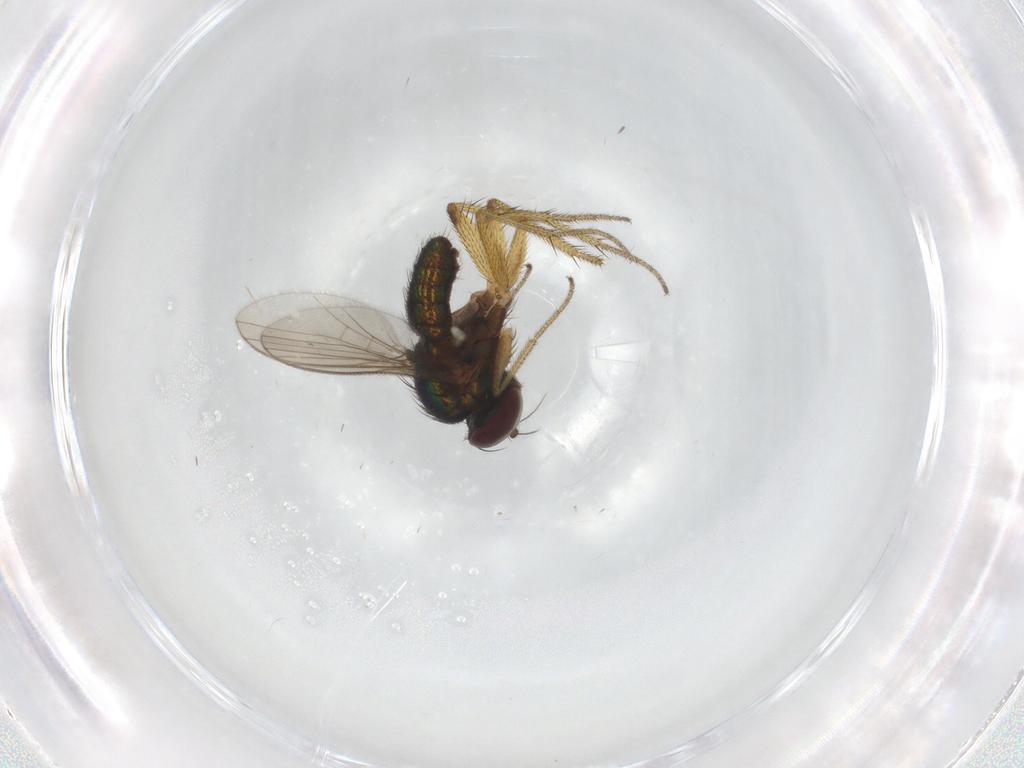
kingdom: Animalia
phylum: Arthropoda
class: Insecta
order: Diptera
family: Dolichopodidae
